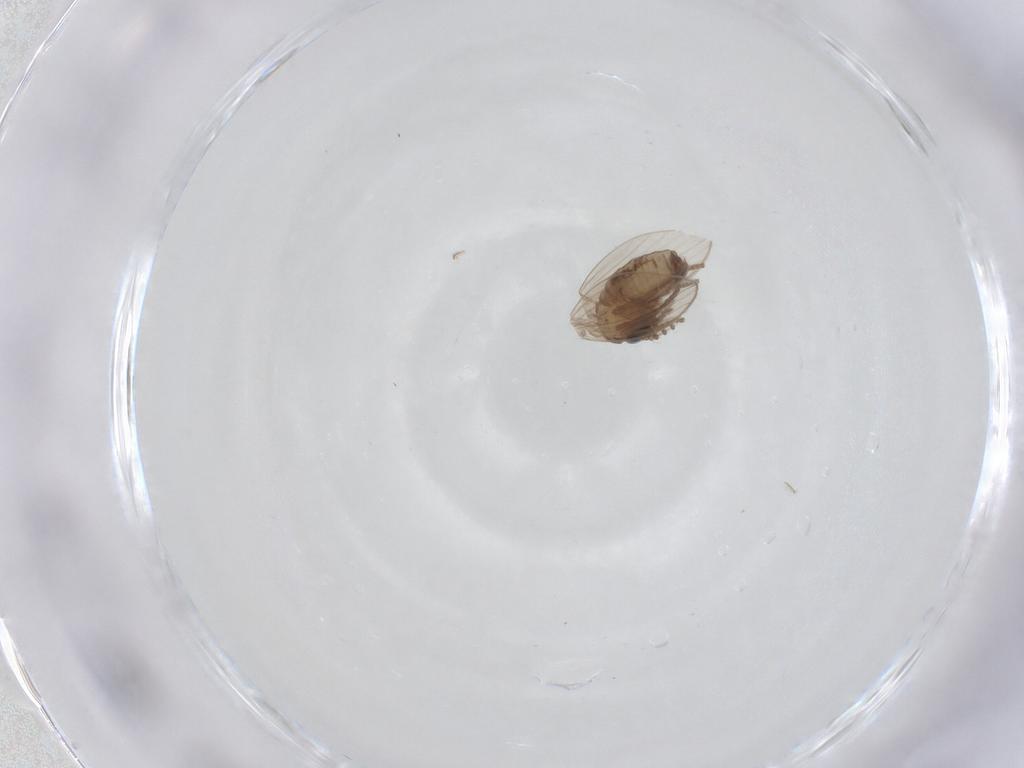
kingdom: Animalia
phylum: Arthropoda
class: Insecta
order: Diptera
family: Psychodidae
